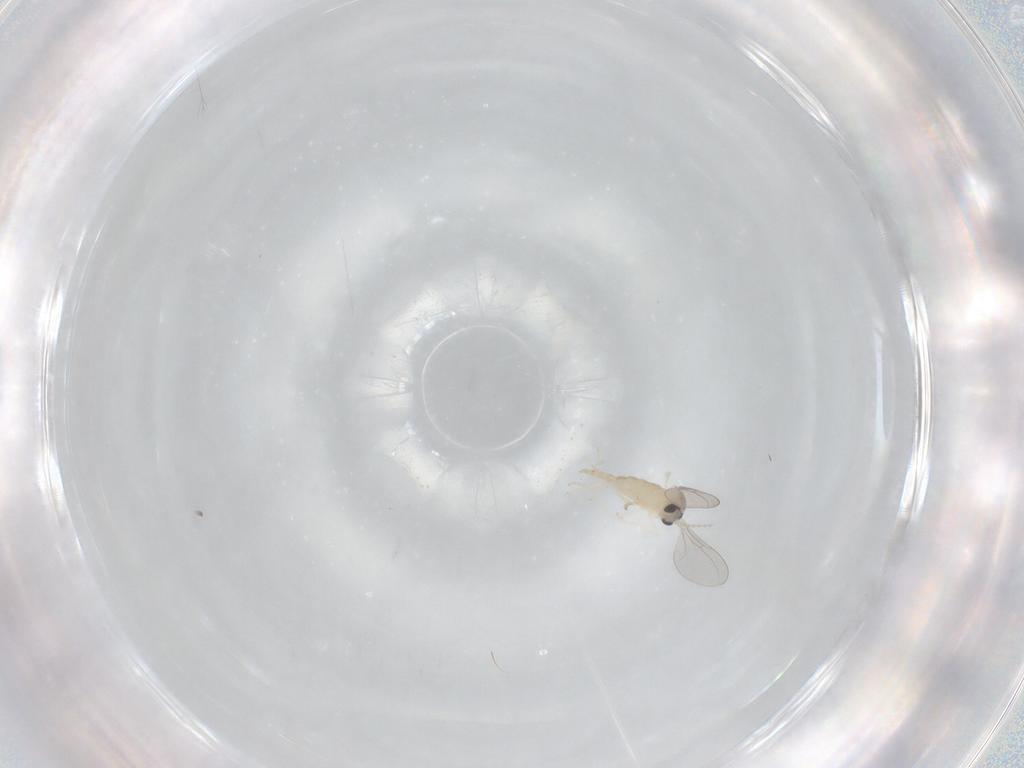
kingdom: Animalia
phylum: Arthropoda
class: Insecta
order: Diptera
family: Cecidomyiidae
